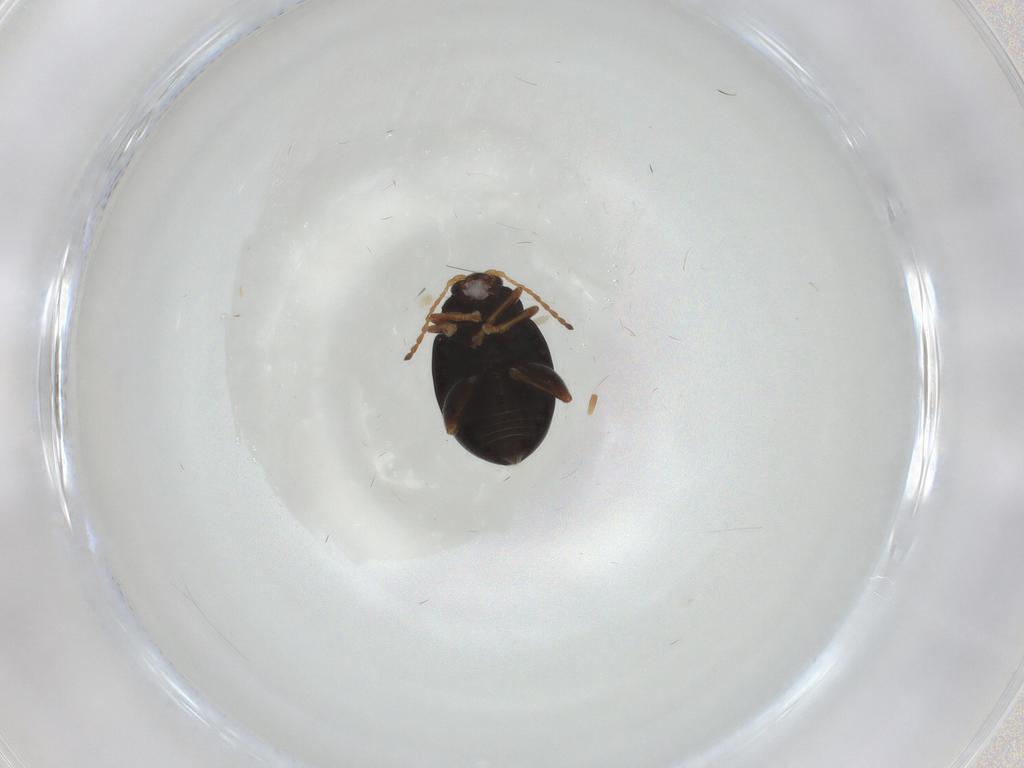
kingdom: Animalia
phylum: Arthropoda
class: Insecta
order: Coleoptera
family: Chrysomelidae
